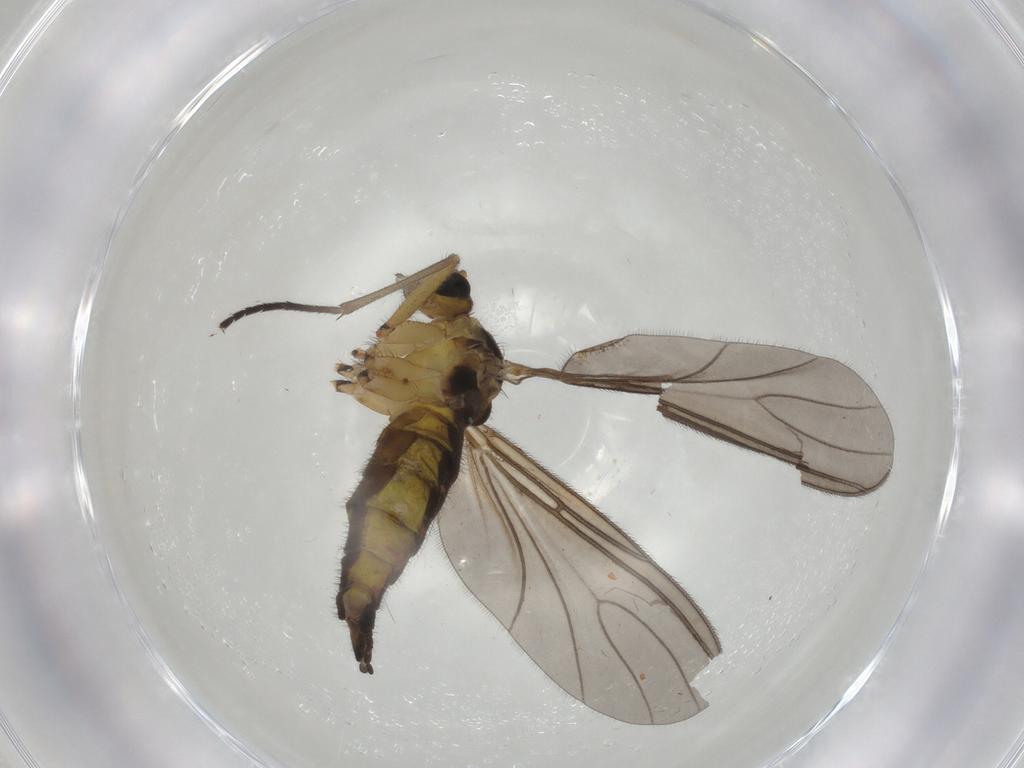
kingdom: Animalia
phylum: Arthropoda
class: Insecta
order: Diptera
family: Sciaridae
